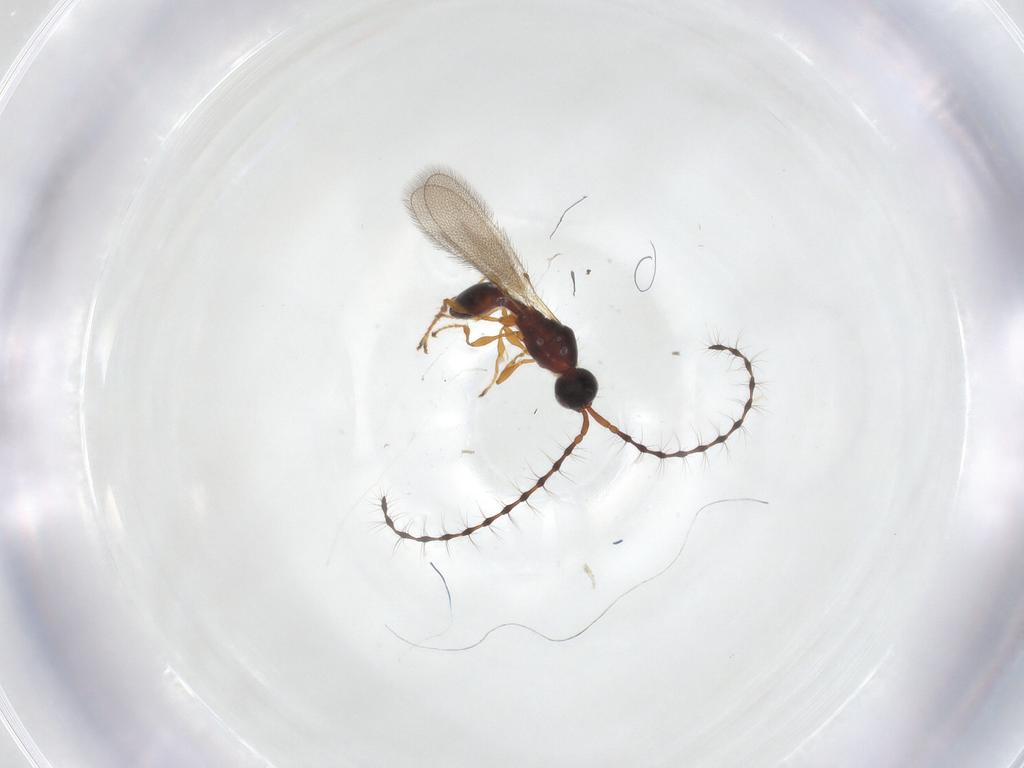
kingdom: Animalia
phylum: Arthropoda
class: Insecta
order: Hymenoptera
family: Diapriidae
